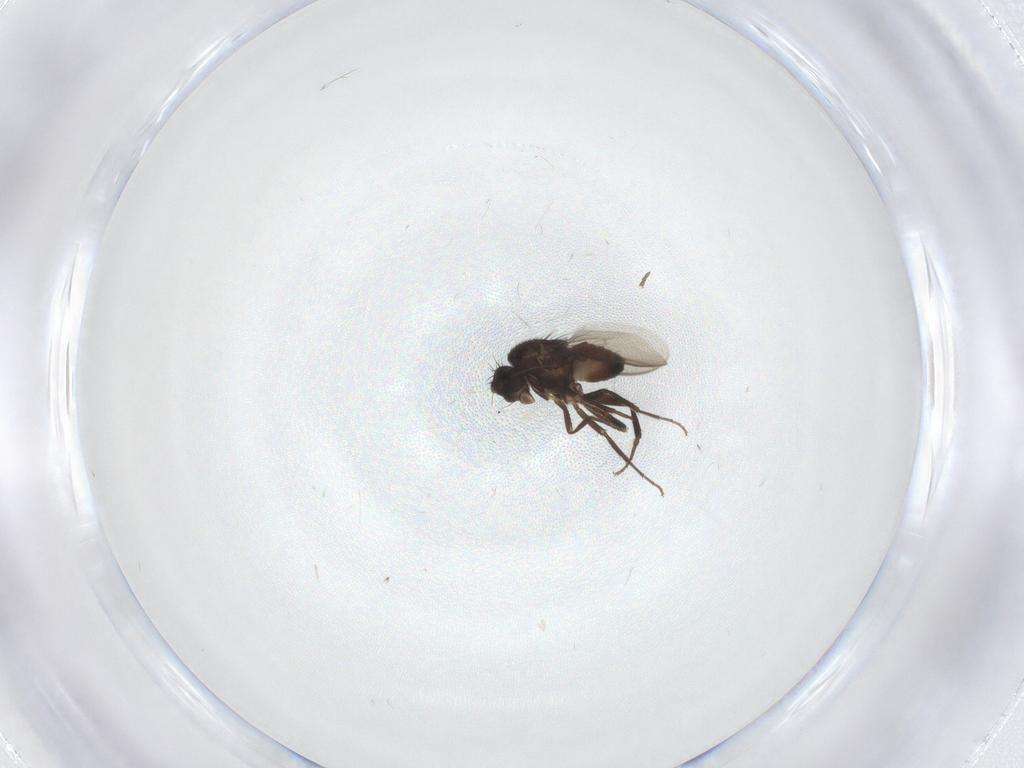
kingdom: Animalia
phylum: Arthropoda
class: Insecta
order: Diptera
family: Sphaeroceridae
